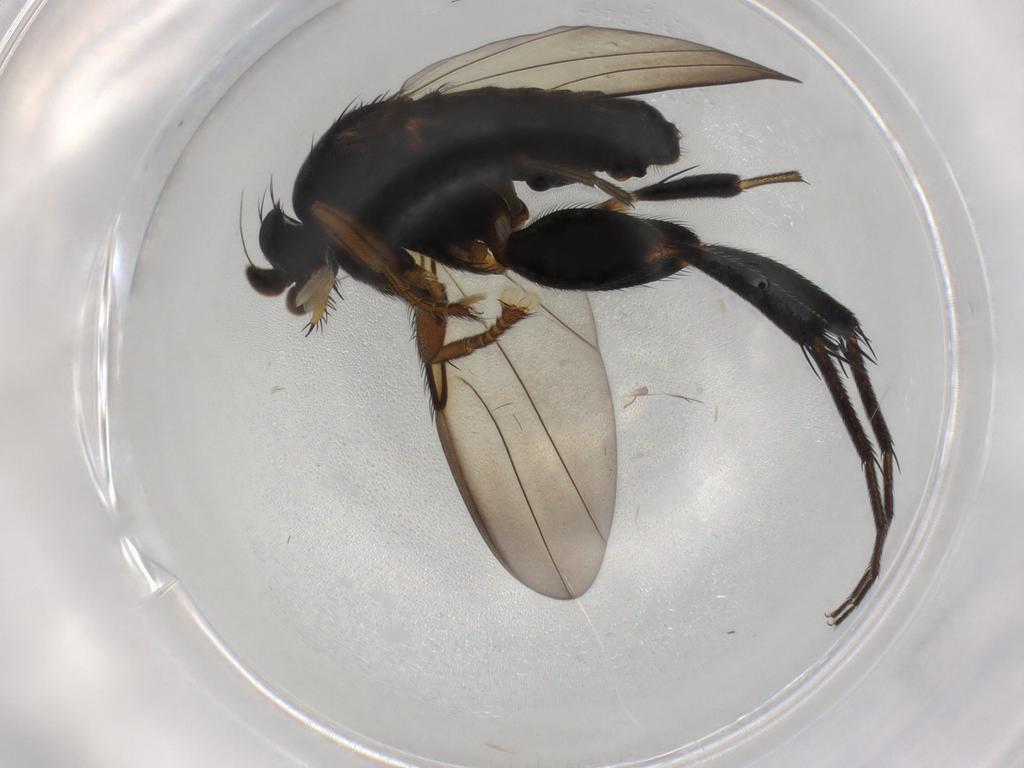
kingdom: Animalia
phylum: Arthropoda
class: Insecta
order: Diptera
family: Phoridae
